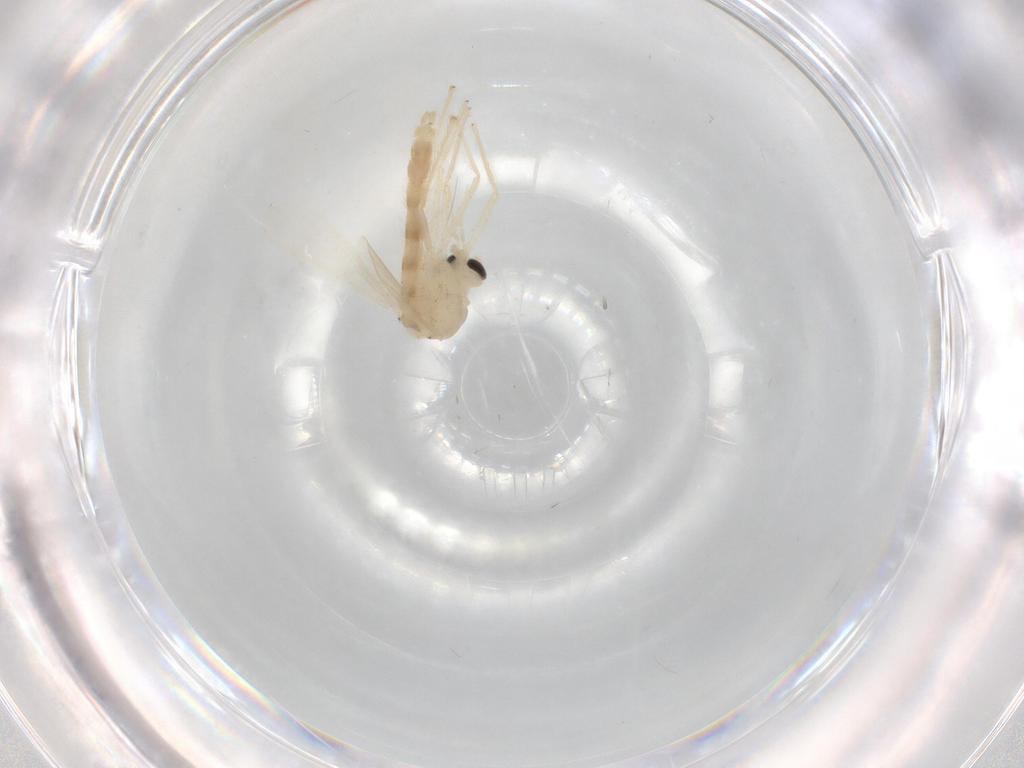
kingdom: Animalia
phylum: Arthropoda
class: Insecta
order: Diptera
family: Chironomidae
